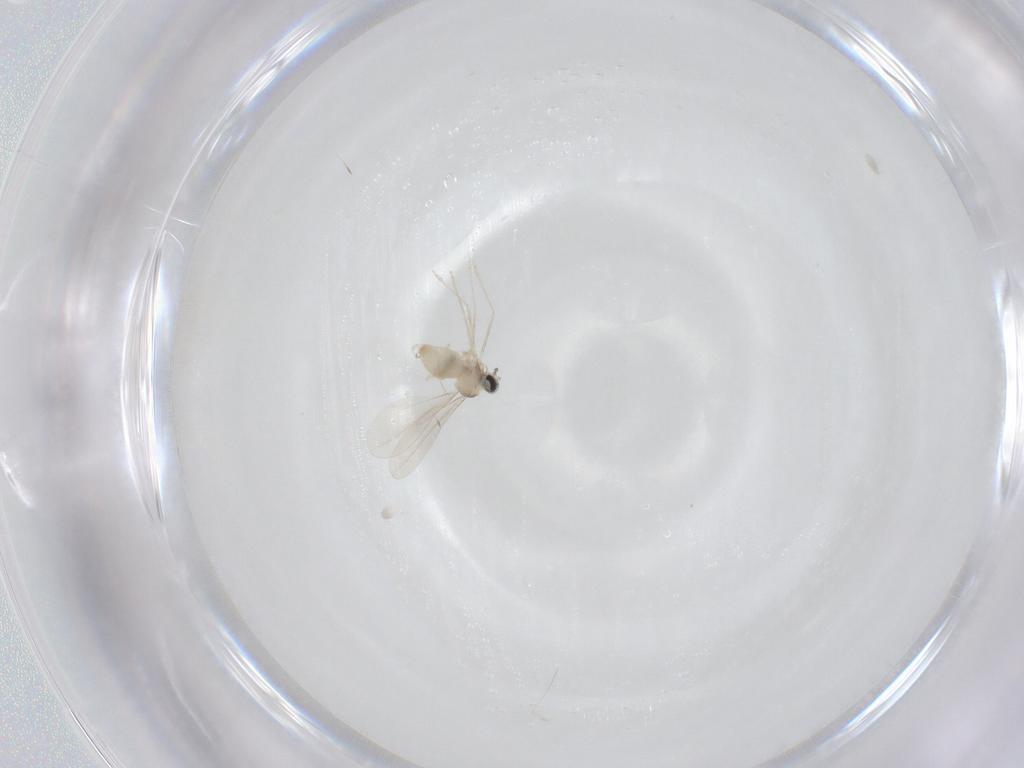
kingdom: Animalia
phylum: Arthropoda
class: Insecta
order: Diptera
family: Cecidomyiidae
